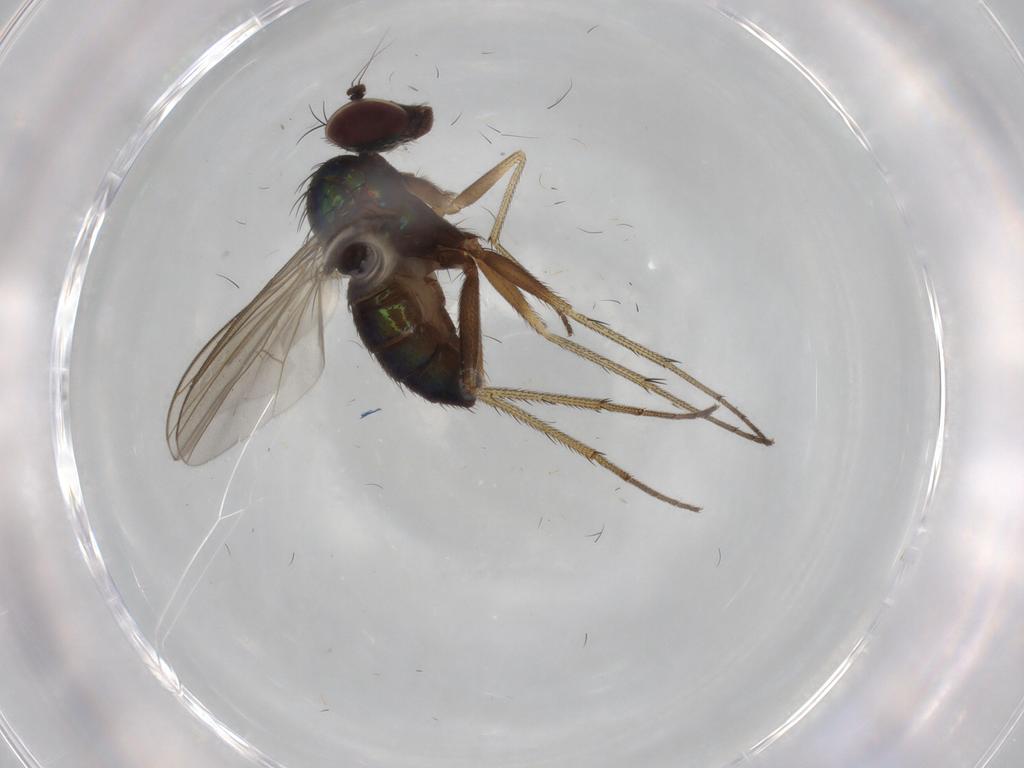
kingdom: Animalia
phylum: Arthropoda
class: Insecta
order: Diptera
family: Dolichopodidae
